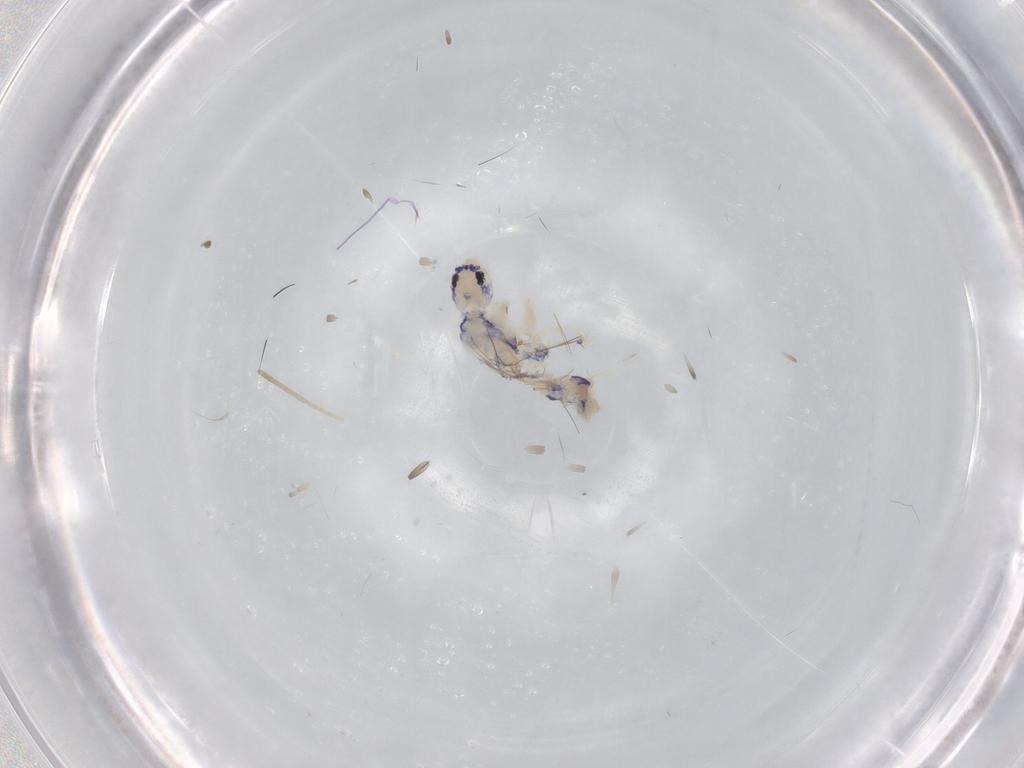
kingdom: Animalia
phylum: Arthropoda
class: Collembola
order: Entomobryomorpha
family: Entomobryidae
